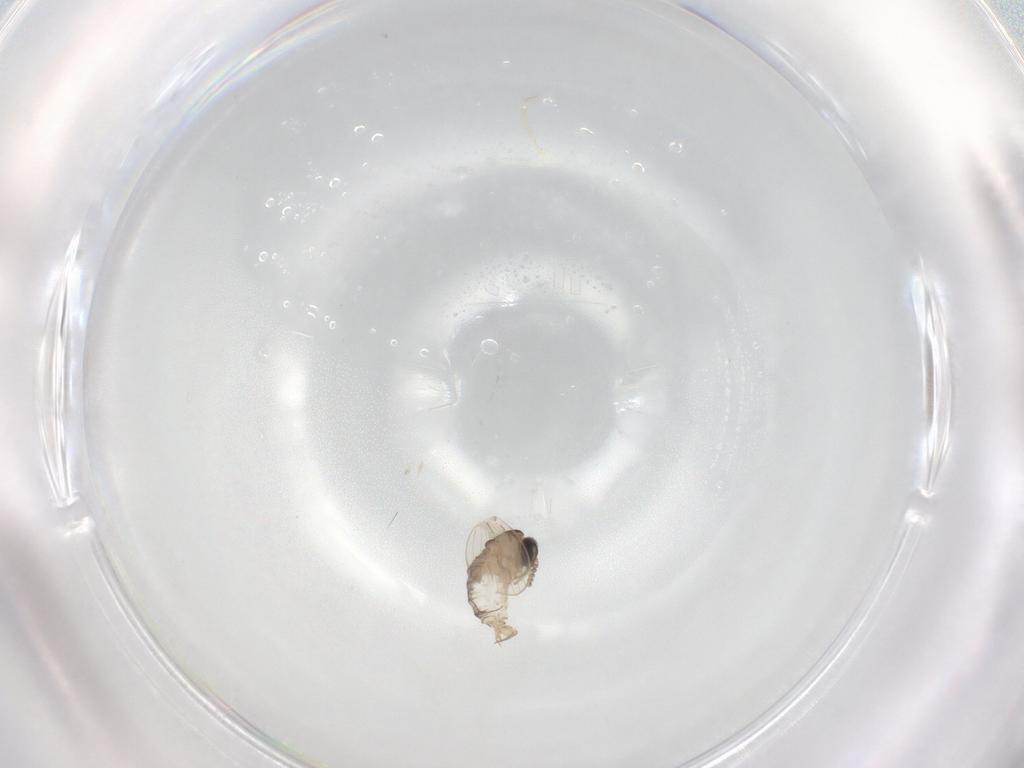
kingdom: Animalia
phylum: Arthropoda
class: Insecta
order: Diptera
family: Psychodidae
